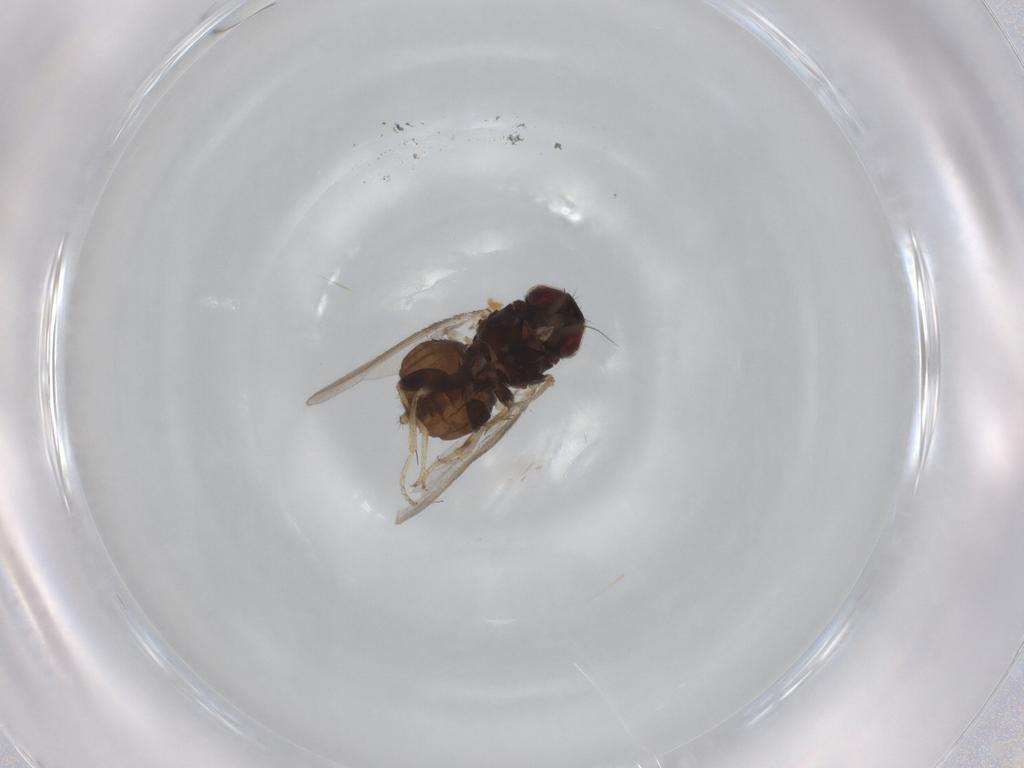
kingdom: Animalia
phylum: Arthropoda
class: Insecta
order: Diptera
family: Milichiidae
